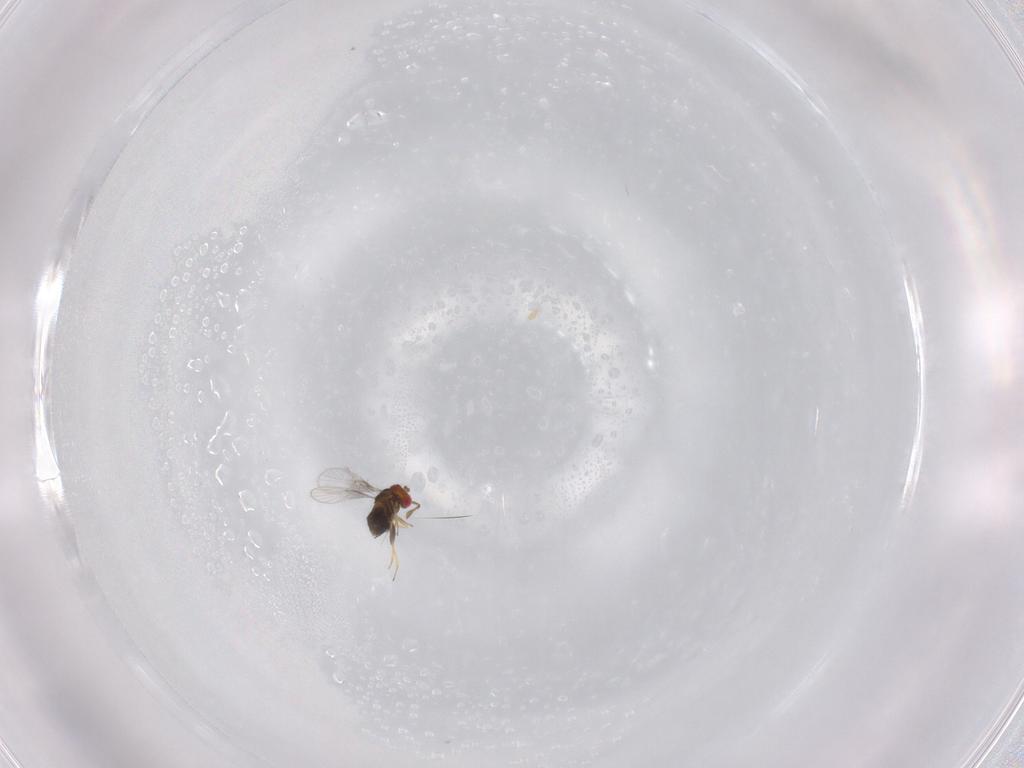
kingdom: Animalia
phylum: Arthropoda
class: Insecta
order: Hymenoptera
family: Trichogrammatidae
